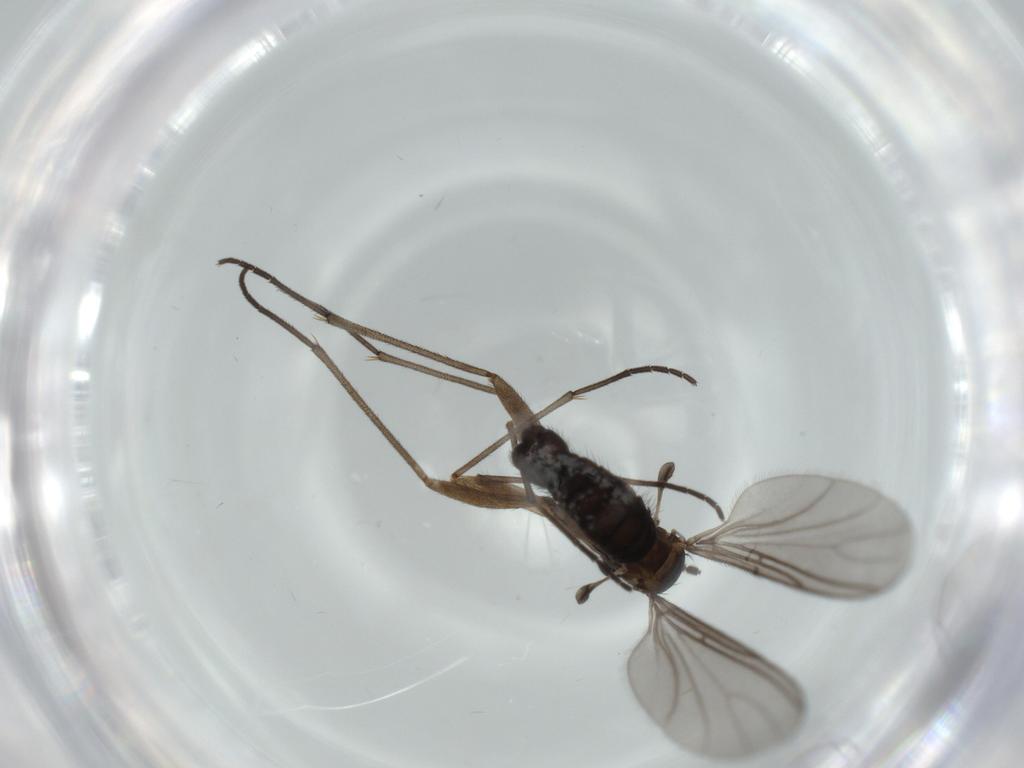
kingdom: Animalia
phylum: Arthropoda
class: Insecta
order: Diptera
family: Sciaridae
